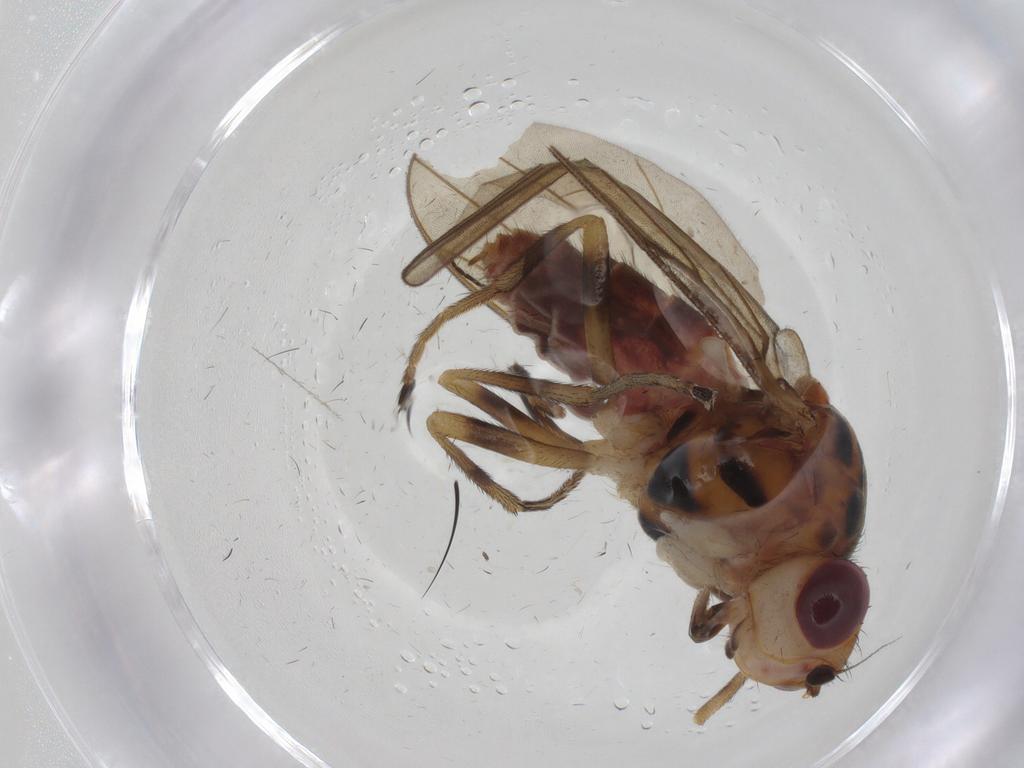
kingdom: Animalia
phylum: Arthropoda
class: Insecta
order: Diptera
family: Chloropidae
